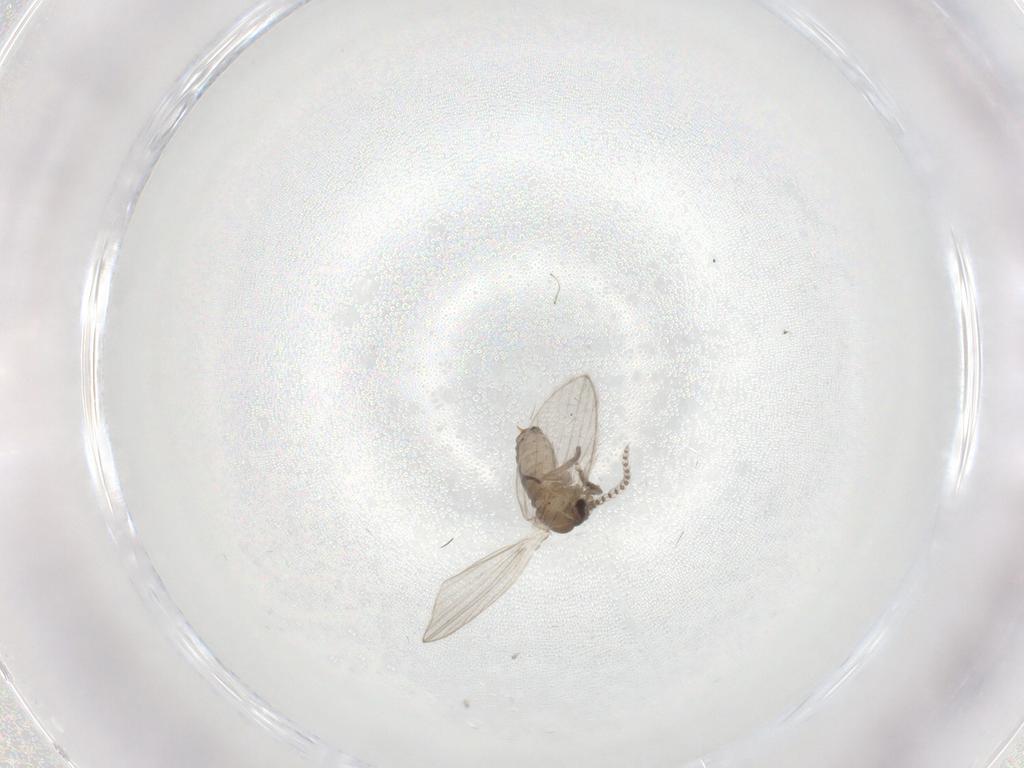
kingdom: Animalia
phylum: Arthropoda
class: Insecta
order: Diptera
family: Psychodidae
